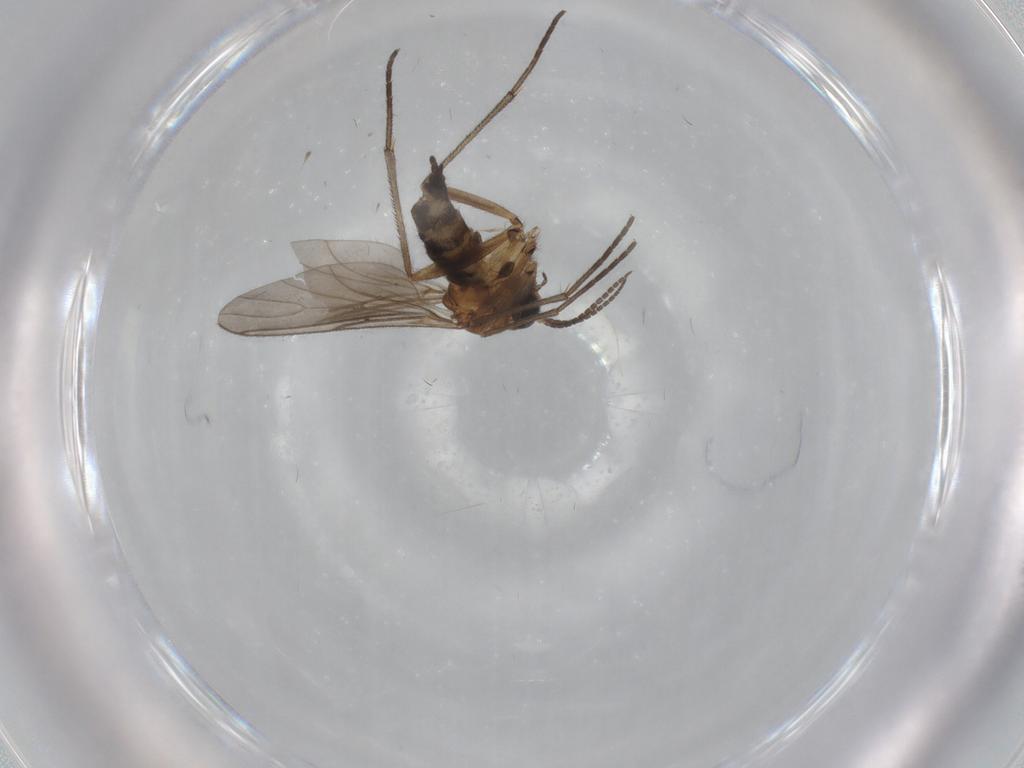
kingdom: Animalia
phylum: Arthropoda
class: Insecta
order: Diptera
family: Sciaridae
